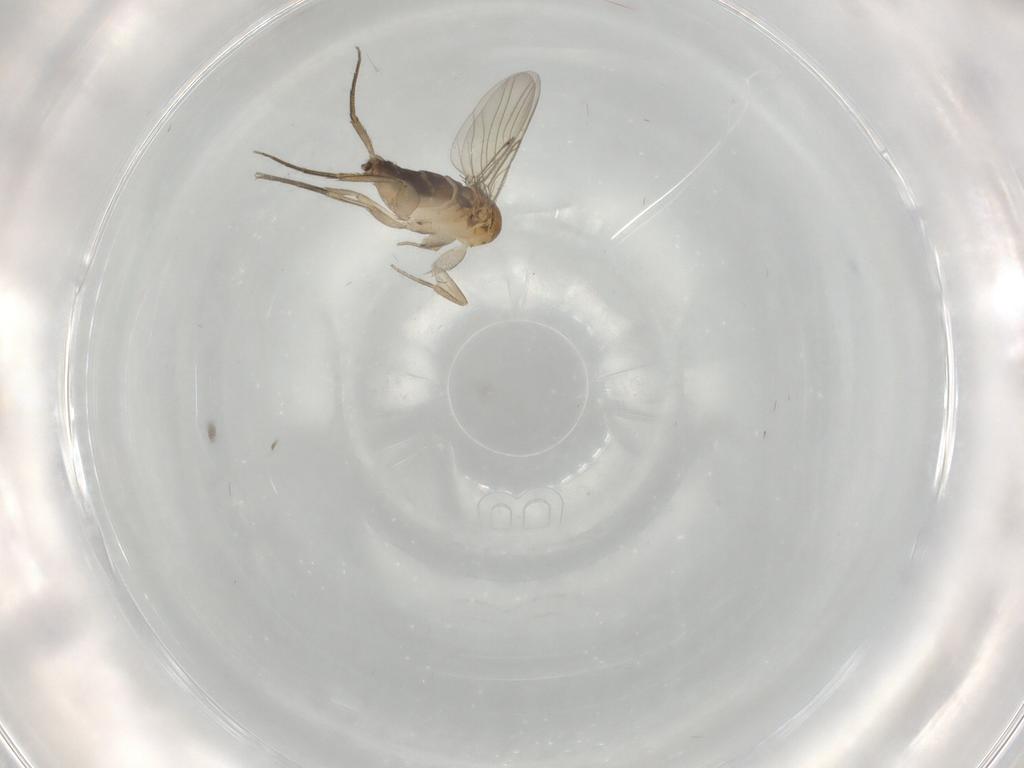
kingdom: Animalia
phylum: Arthropoda
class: Insecta
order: Diptera
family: Phoridae
